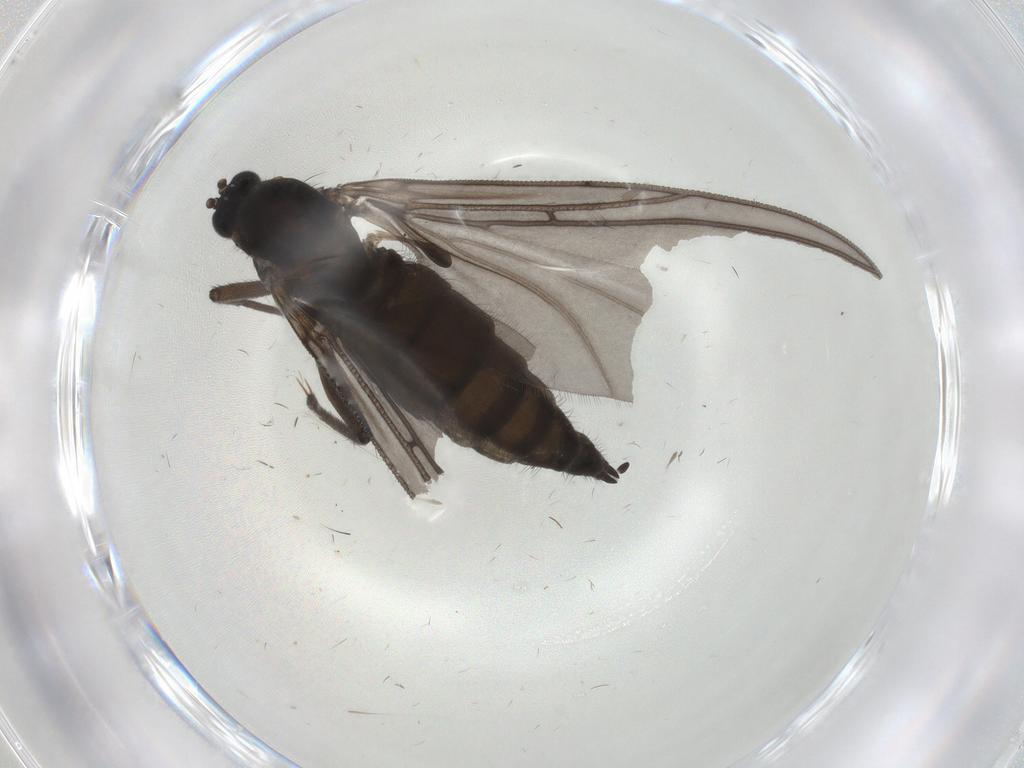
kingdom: Animalia
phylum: Arthropoda
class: Insecta
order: Diptera
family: Sciaridae
